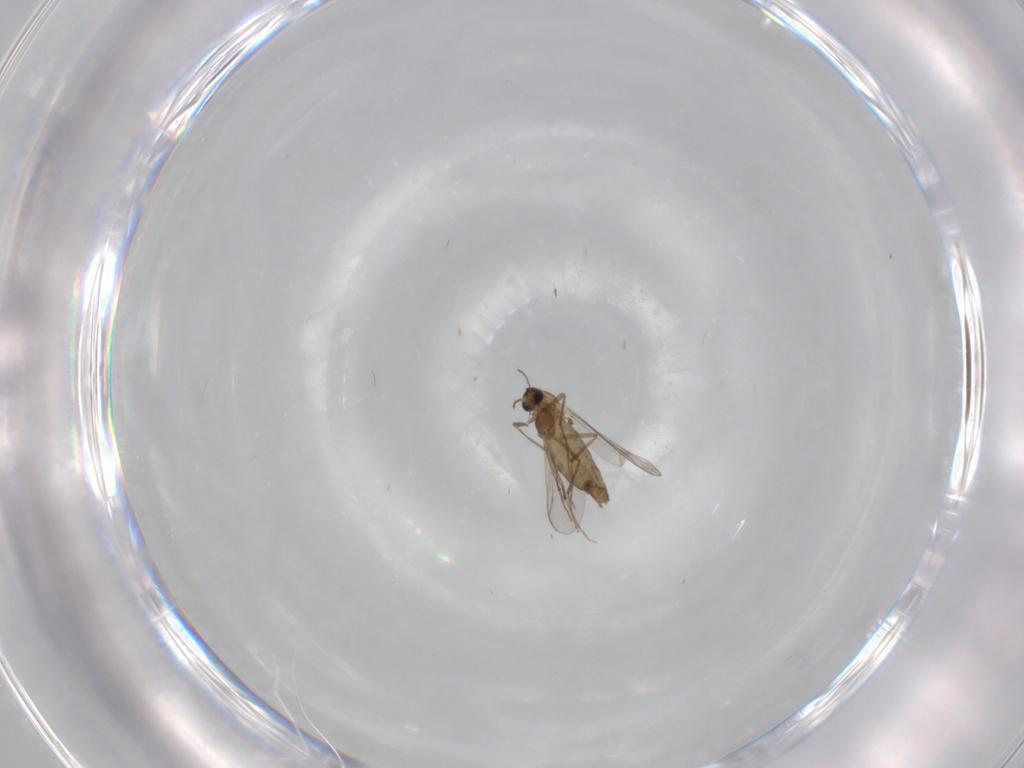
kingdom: Animalia
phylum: Arthropoda
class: Insecta
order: Diptera
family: Chironomidae
